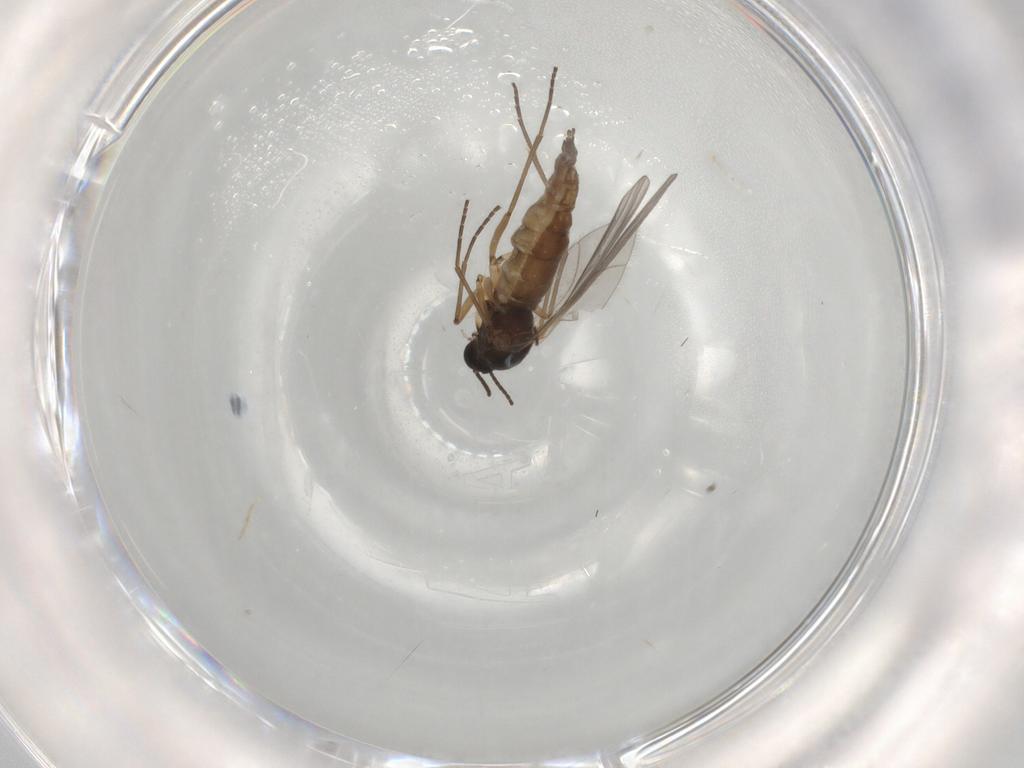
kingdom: Animalia
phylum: Arthropoda
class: Insecta
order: Diptera
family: Sciaridae
